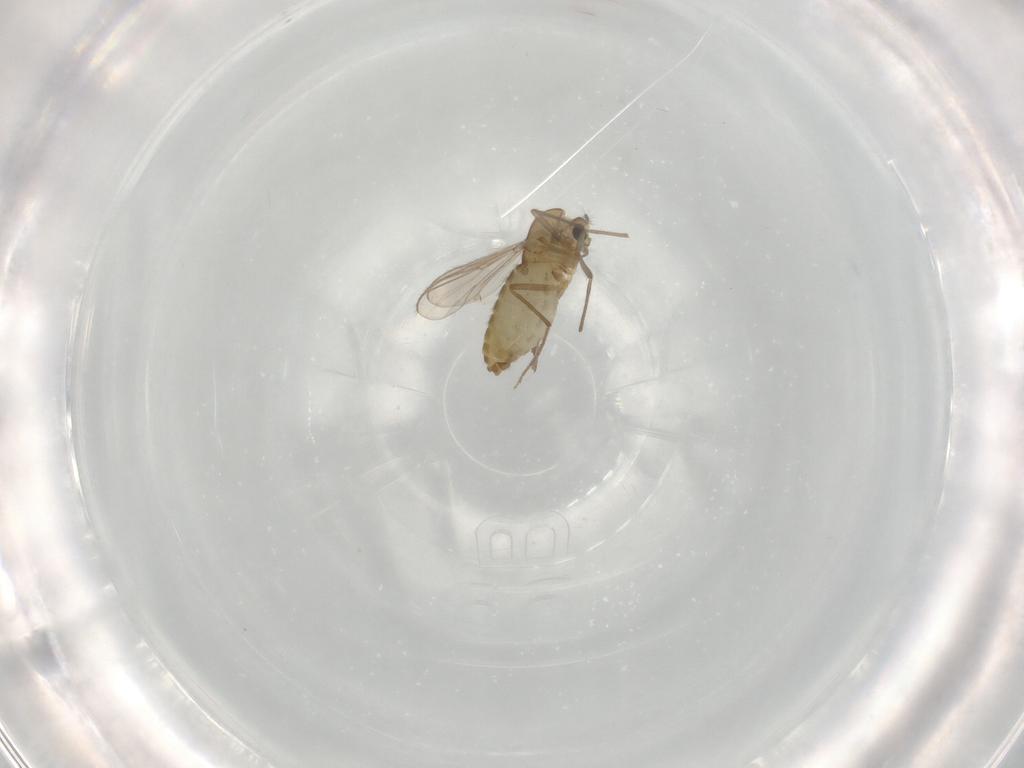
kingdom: Animalia
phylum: Arthropoda
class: Insecta
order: Diptera
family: Chironomidae
